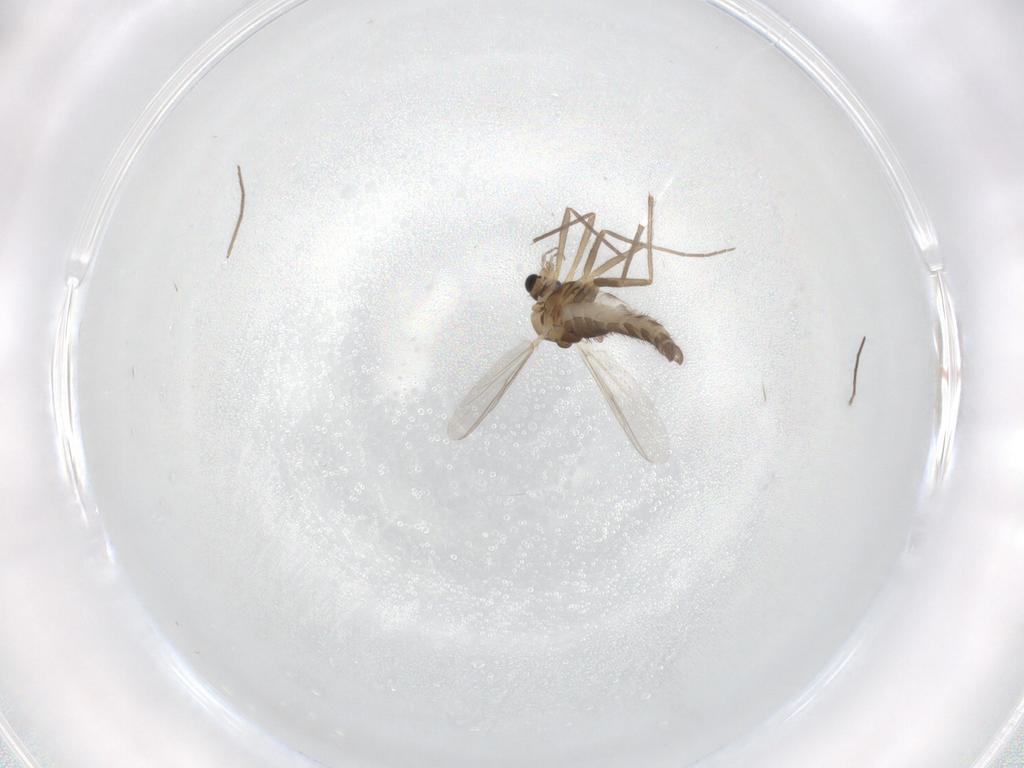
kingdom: Animalia
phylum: Arthropoda
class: Insecta
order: Diptera
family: Chironomidae
